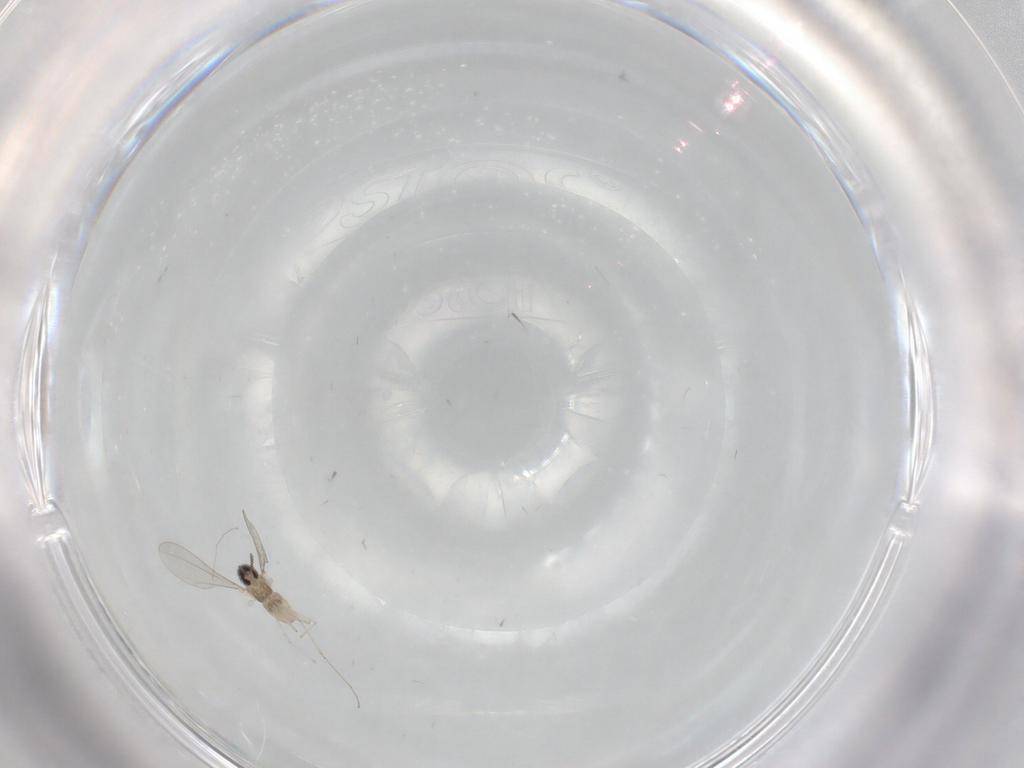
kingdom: Animalia
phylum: Arthropoda
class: Insecta
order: Diptera
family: Cecidomyiidae
